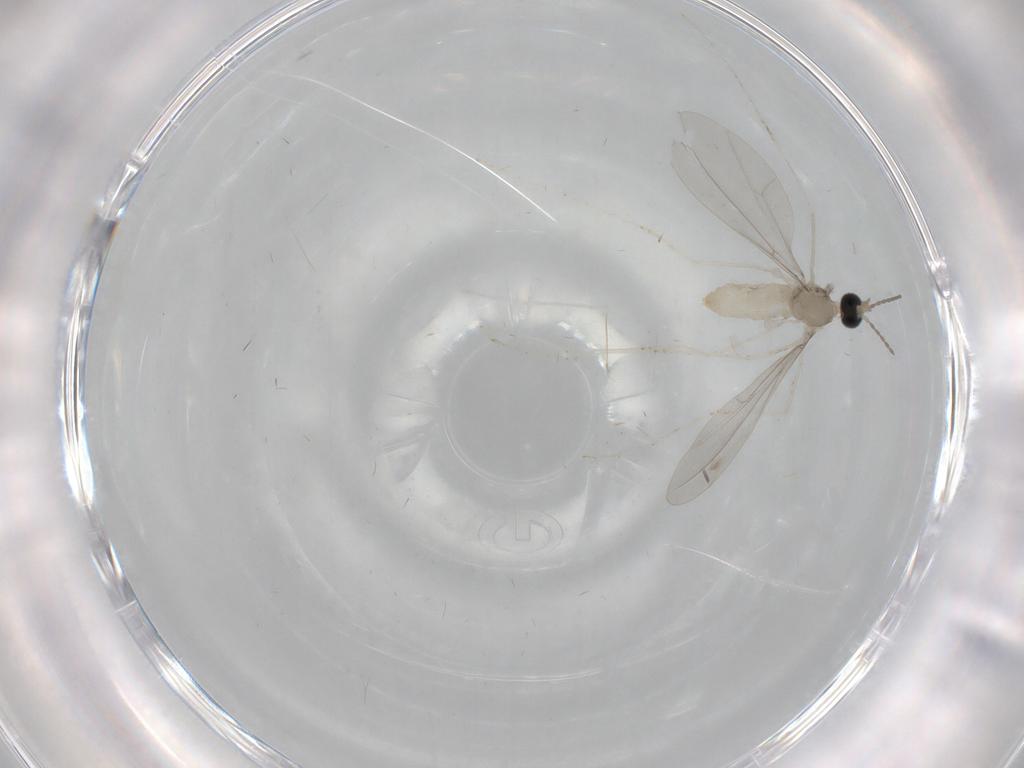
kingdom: Animalia
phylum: Arthropoda
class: Insecta
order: Diptera
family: Cecidomyiidae
